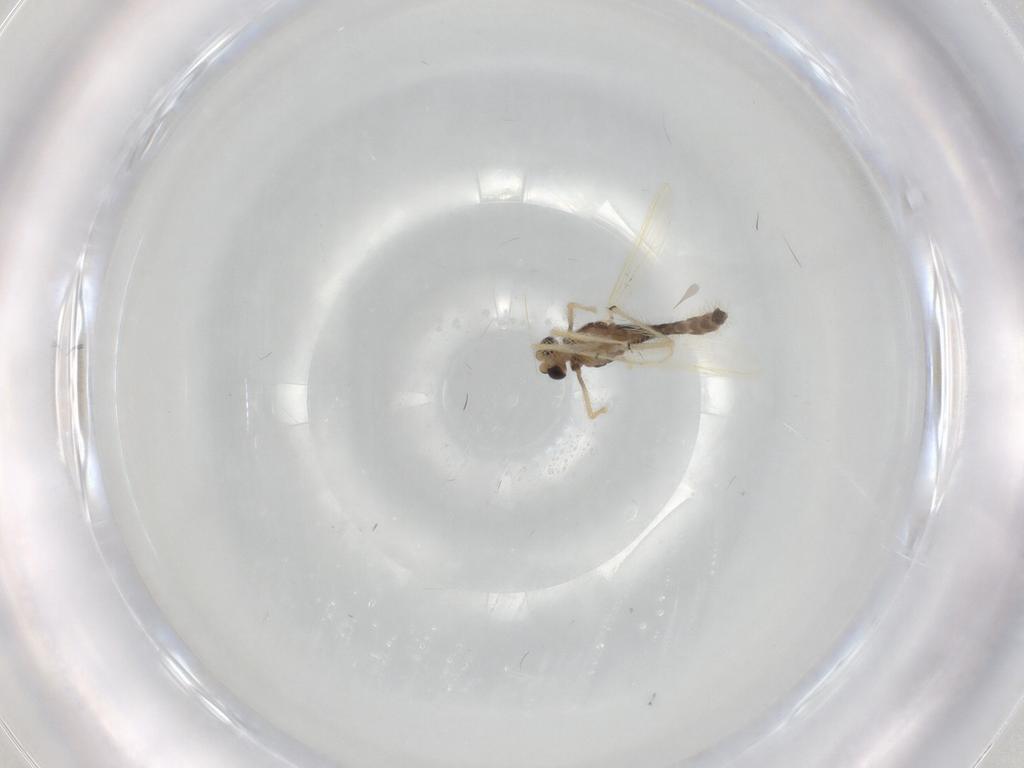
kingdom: Animalia
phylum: Arthropoda
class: Insecta
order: Diptera
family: Chironomidae
